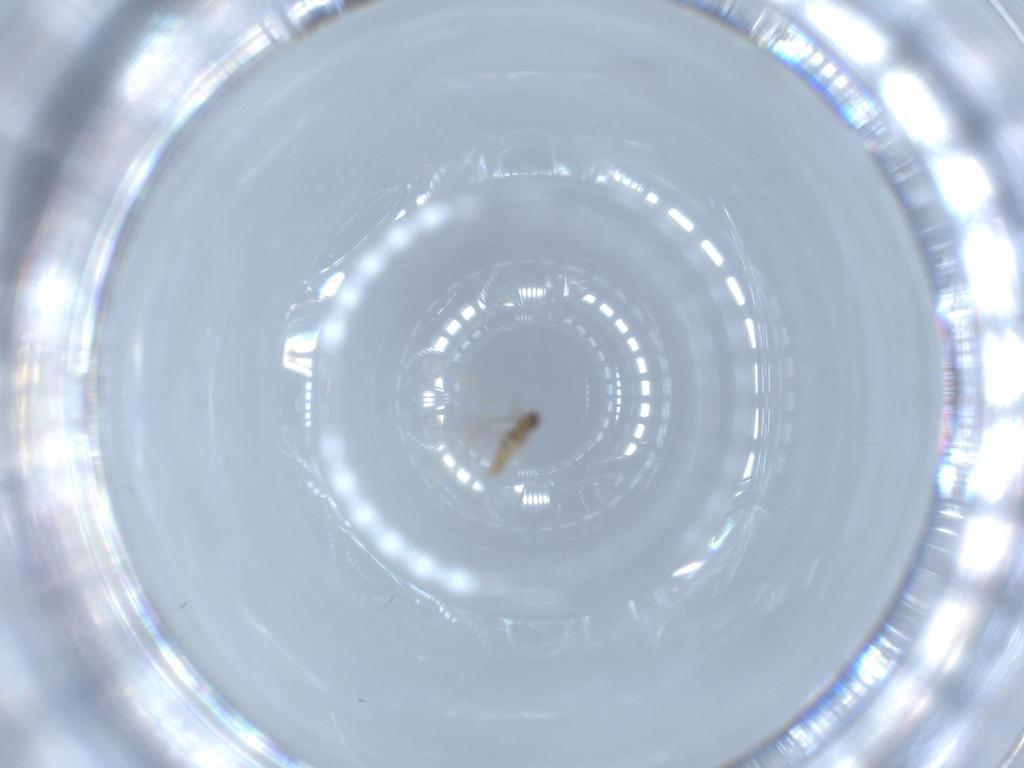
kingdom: Animalia
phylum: Arthropoda
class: Insecta
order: Diptera
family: Cecidomyiidae
